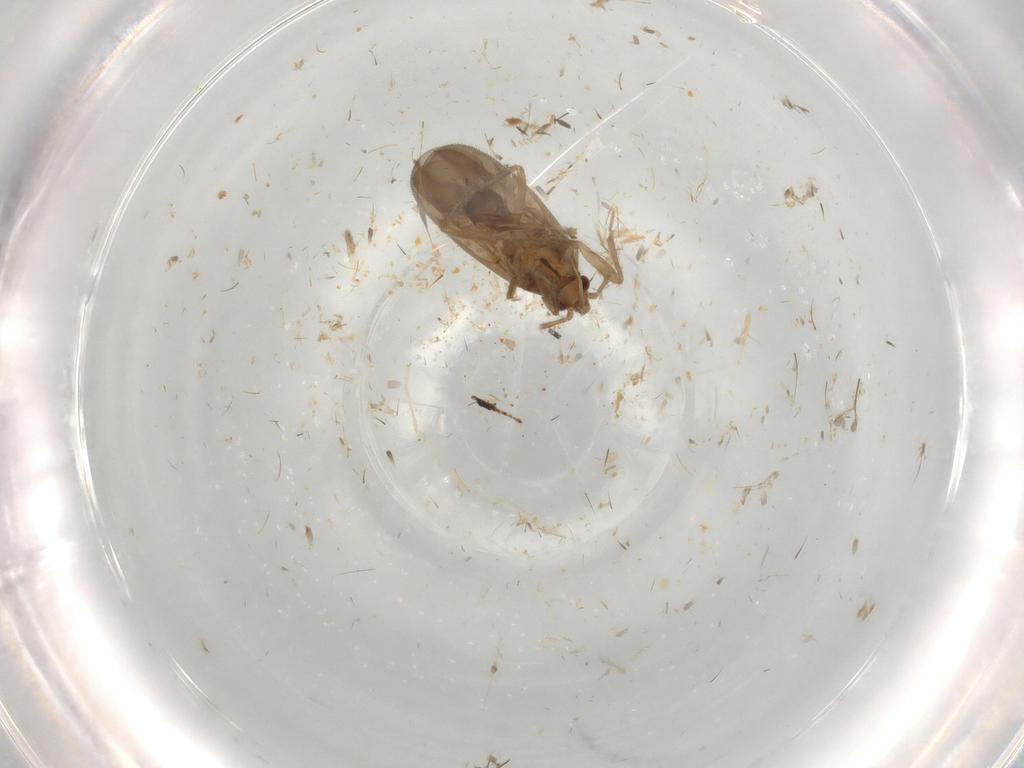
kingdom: Animalia
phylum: Arthropoda
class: Insecta
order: Hemiptera
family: Ceratocombidae
